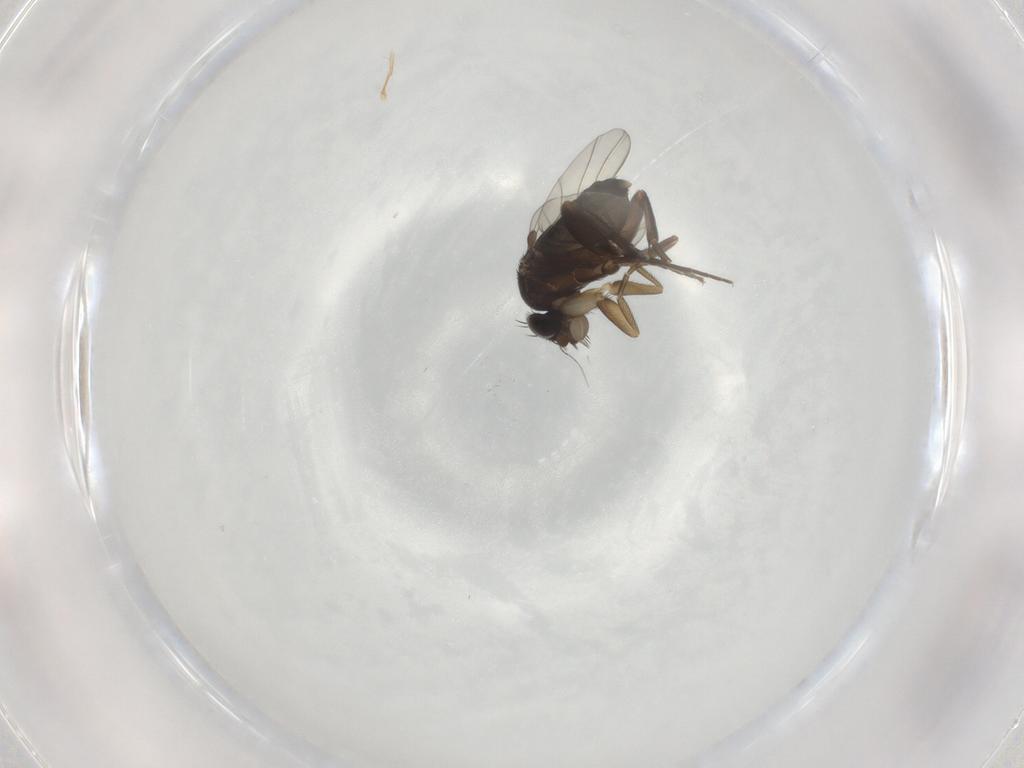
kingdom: Animalia
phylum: Arthropoda
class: Insecta
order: Diptera
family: Phoridae
